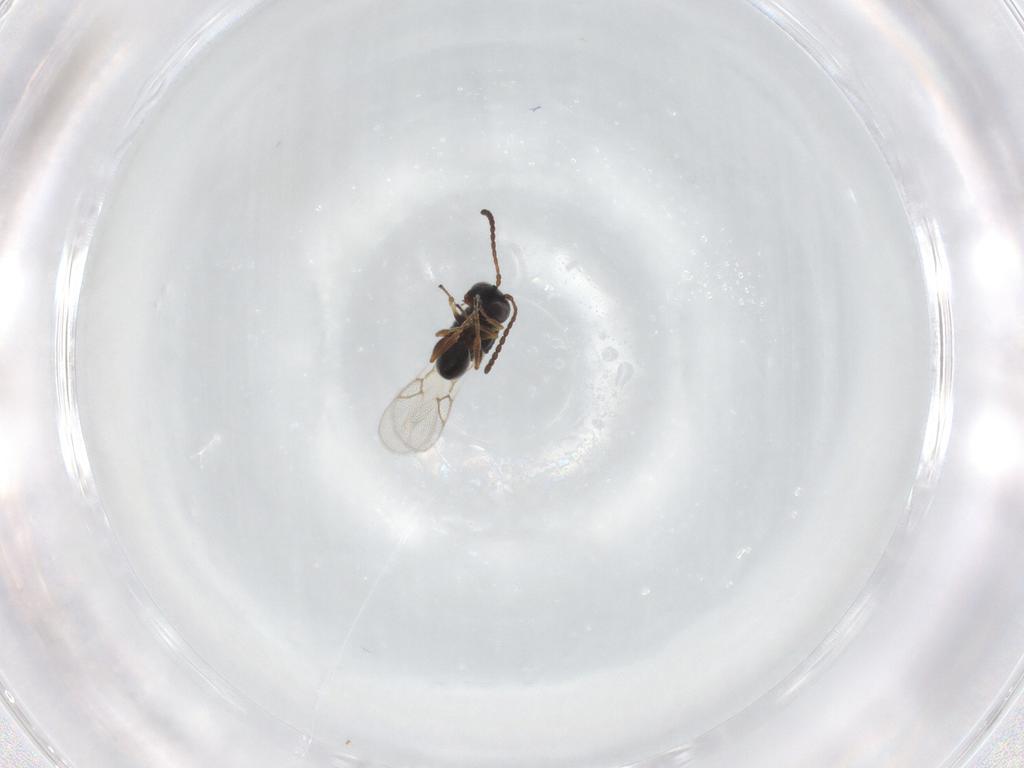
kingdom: Animalia
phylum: Arthropoda
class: Insecta
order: Hymenoptera
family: Figitidae
